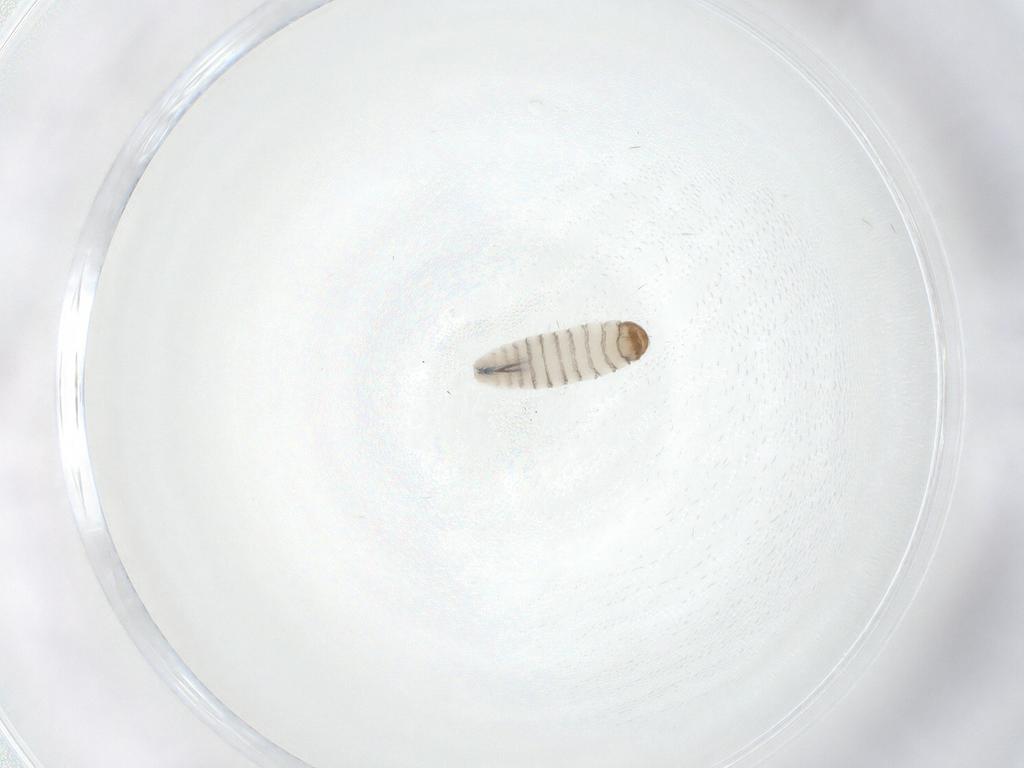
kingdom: Animalia
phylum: Arthropoda
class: Insecta
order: Diptera
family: Sarcophagidae
